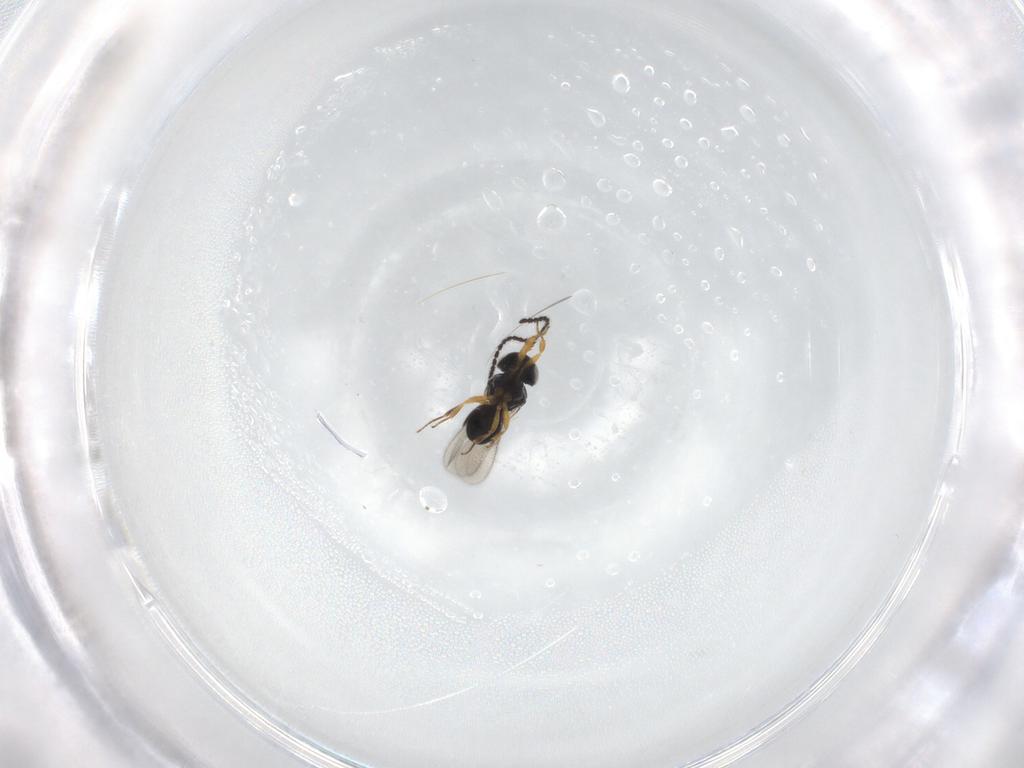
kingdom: Animalia
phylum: Arthropoda
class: Insecta
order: Hymenoptera
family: Scelionidae
